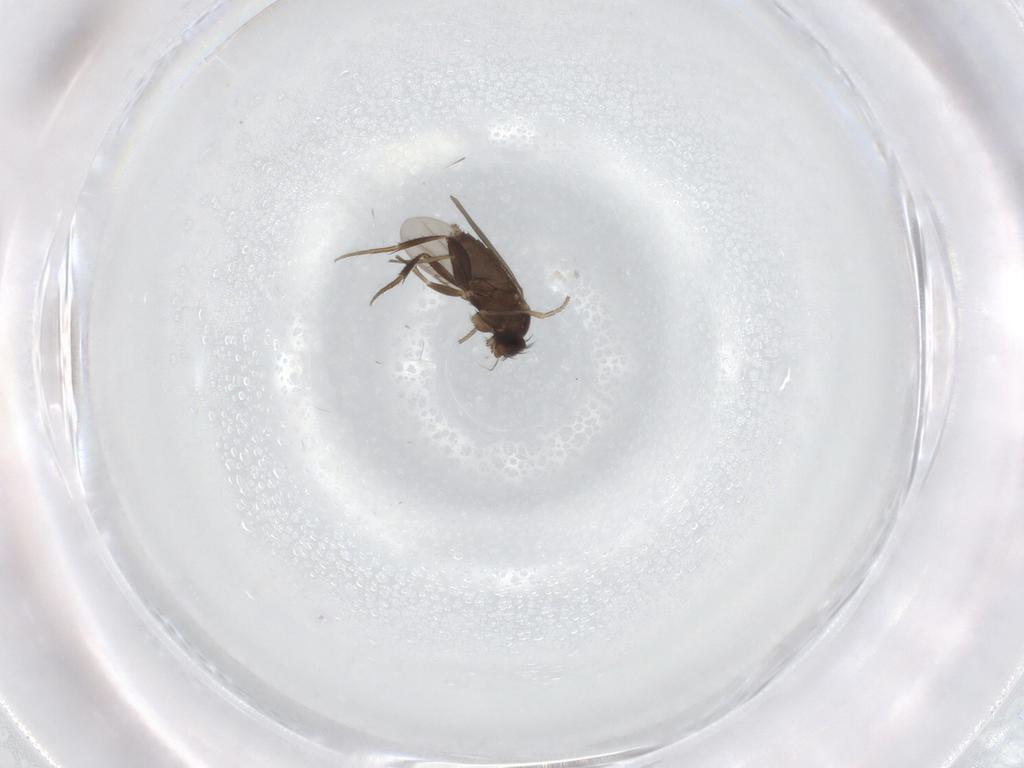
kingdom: Animalia
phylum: Arthropoda
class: Insecta
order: Diptera
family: Phoridae
